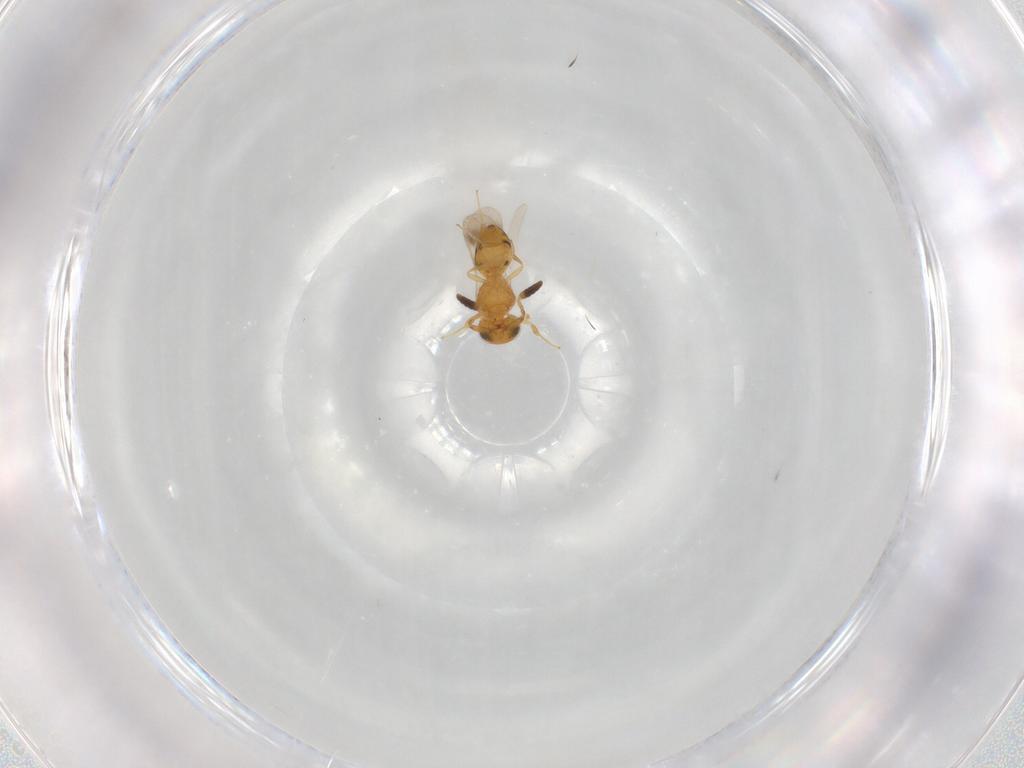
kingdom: Animalia
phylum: Arthropoda
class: Insecta
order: Hymenoptera
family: Scelionidae
